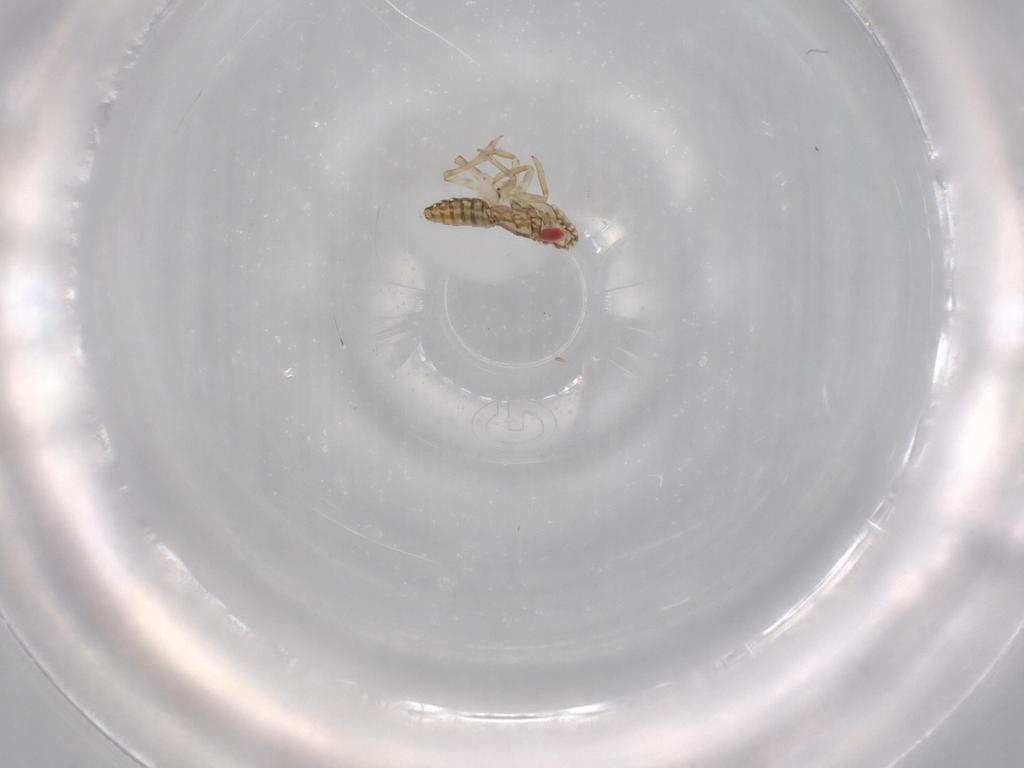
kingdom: Animalia
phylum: Arthropoda
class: Insecta
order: Hemiptera
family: Delphacidae
